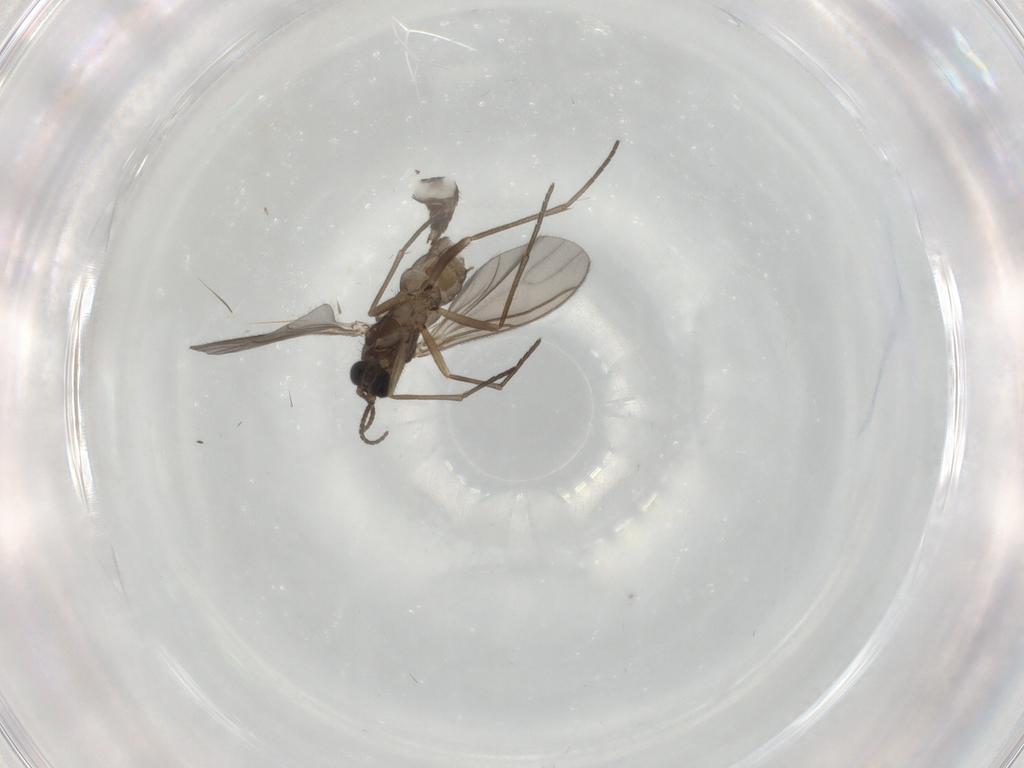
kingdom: Animalia
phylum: Arthropoda
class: Insecta
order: Diptera
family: Sciaridae
